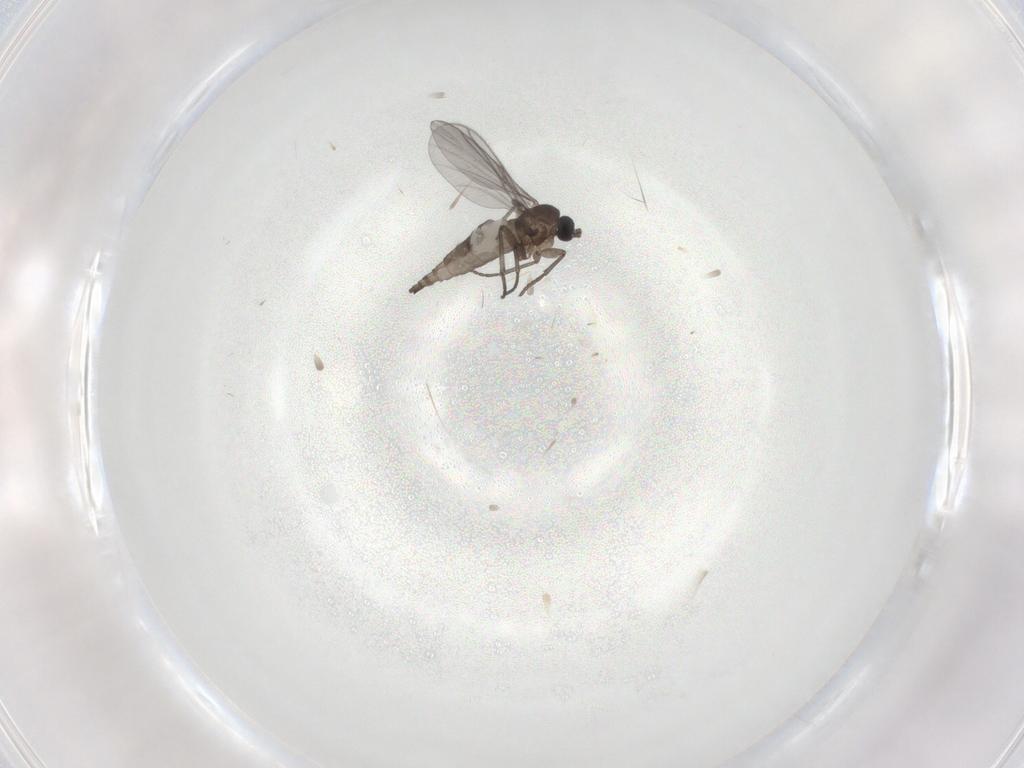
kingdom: Animalia
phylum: Arthropoda
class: Insecta
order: Diptera
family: Sciaridae
